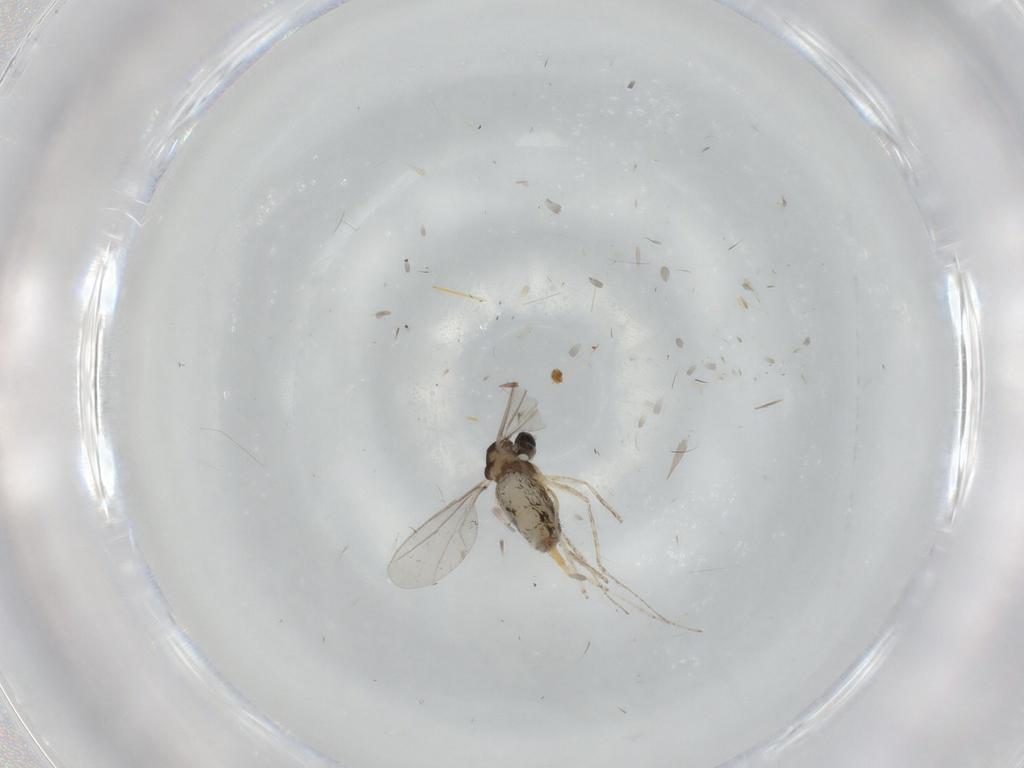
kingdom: Animalia
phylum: Arthropoda
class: Insecta
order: Diptera
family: Cecidomyiidae
